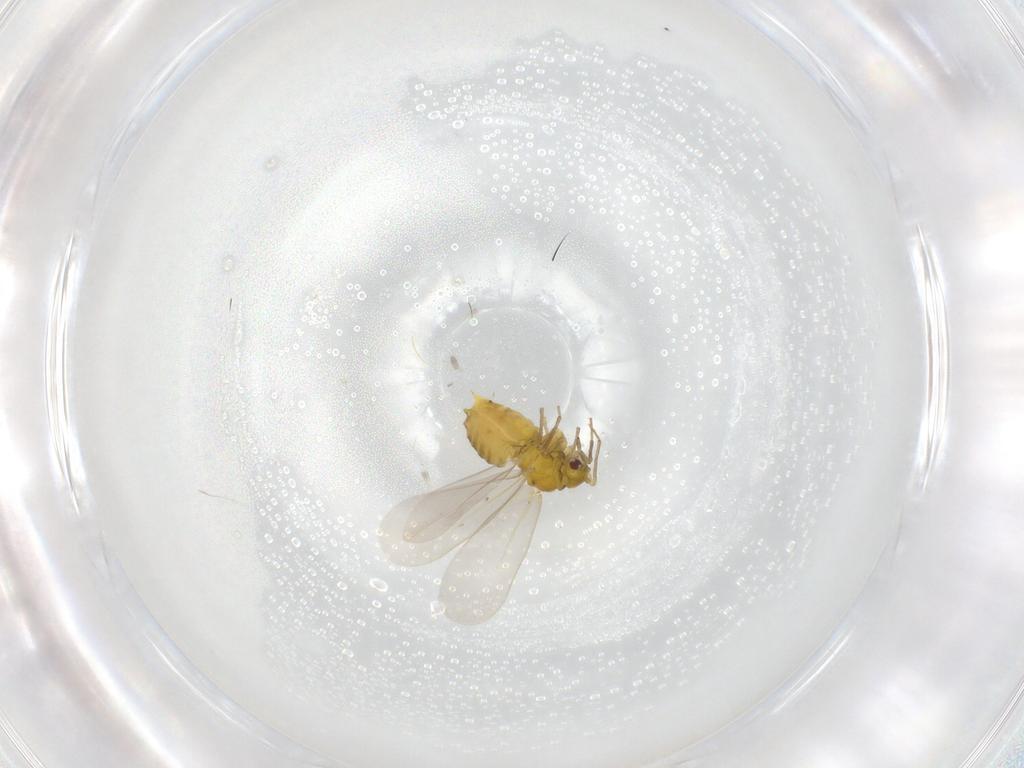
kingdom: Animalia
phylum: Arthropoda
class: Insecta
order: Hemiptera
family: Aleyrodidae
